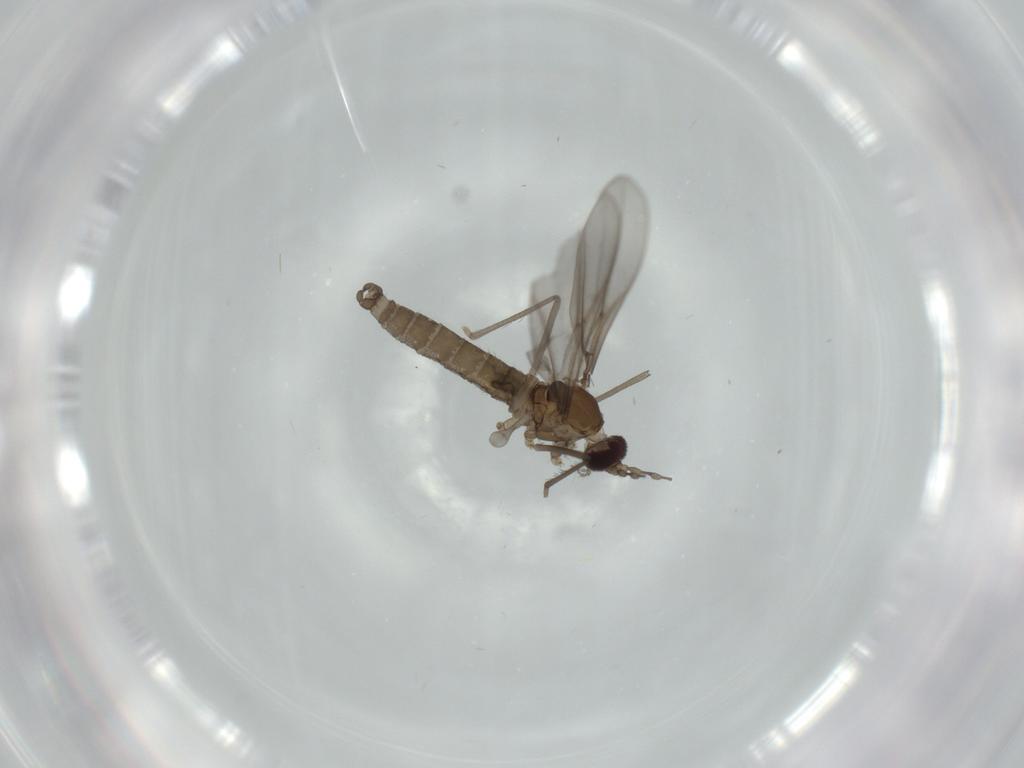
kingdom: Animalia
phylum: Arthropoda
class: Insecta
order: Diptera
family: Cecidomyiidae
